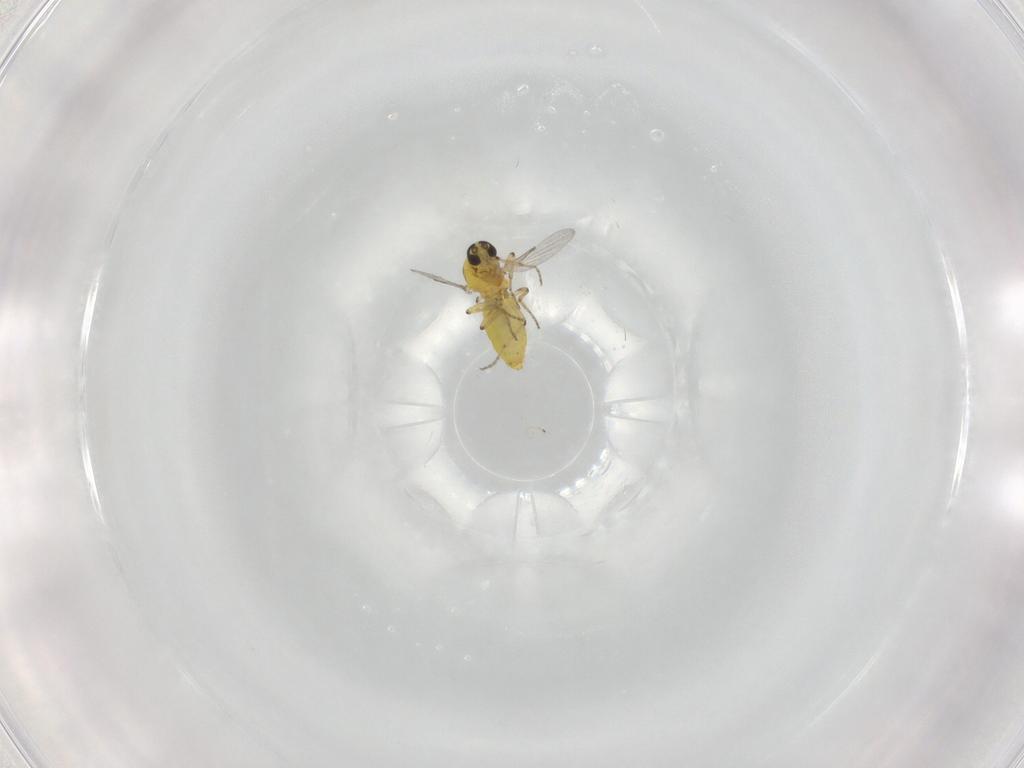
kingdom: Animalia
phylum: Arthropoda
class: Insecta
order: Diptera
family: Ceratopogonidae
